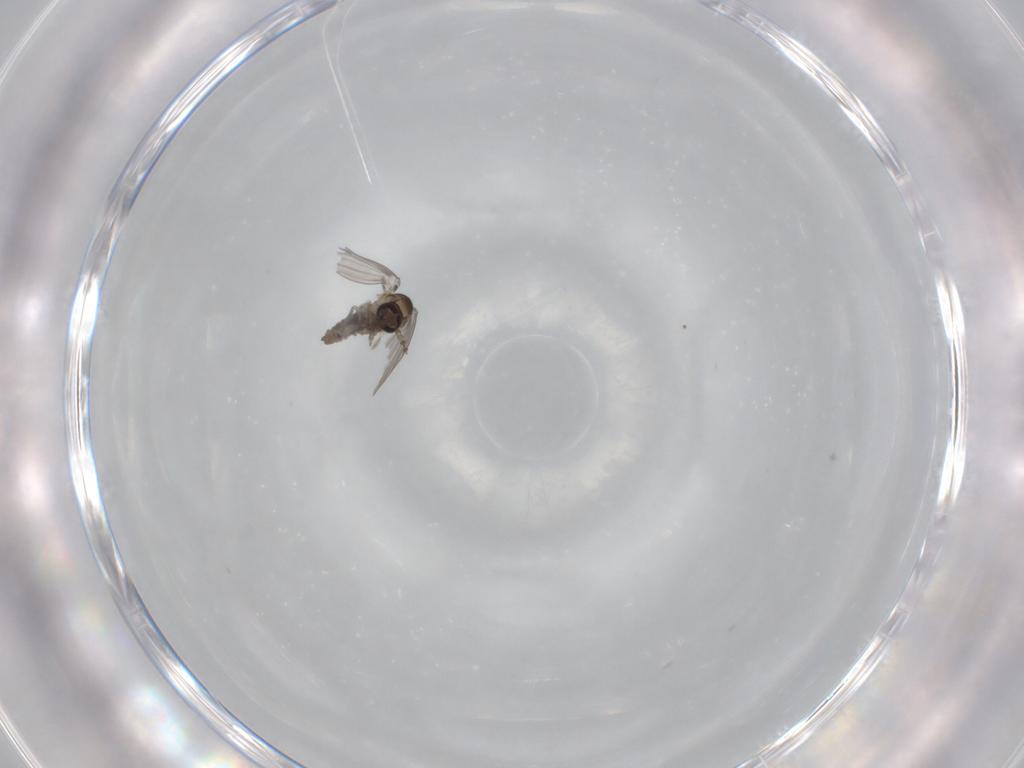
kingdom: Animalia
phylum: Arthropoda
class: Insecta
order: Diptera
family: Psychodidae
